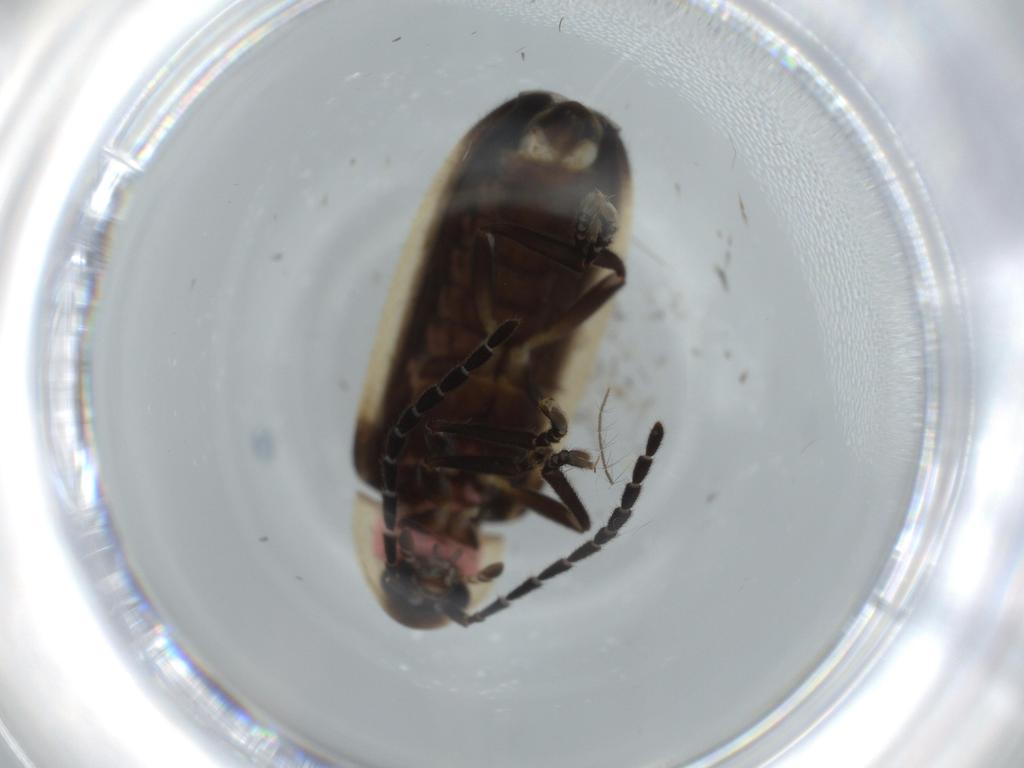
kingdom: Animalia
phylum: Arthropoda
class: Insecta
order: Coleoptera
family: Lampyridae
